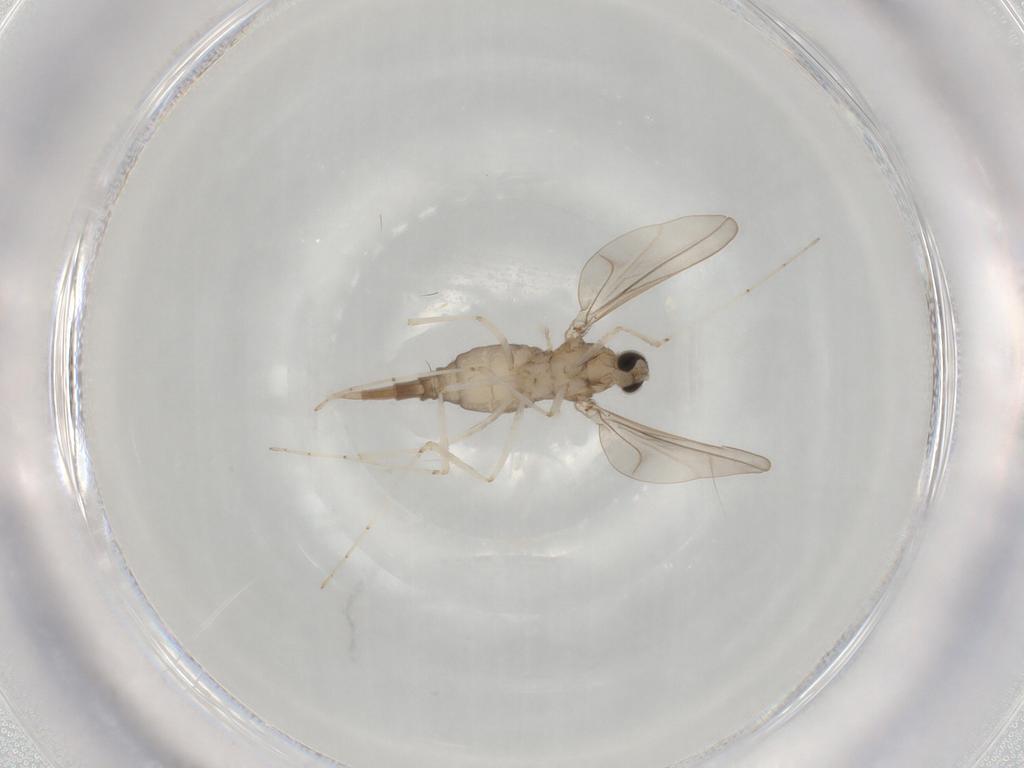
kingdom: Animalia
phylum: Arthropoda
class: Insecta
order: Diptera
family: Cecidomyiidae
